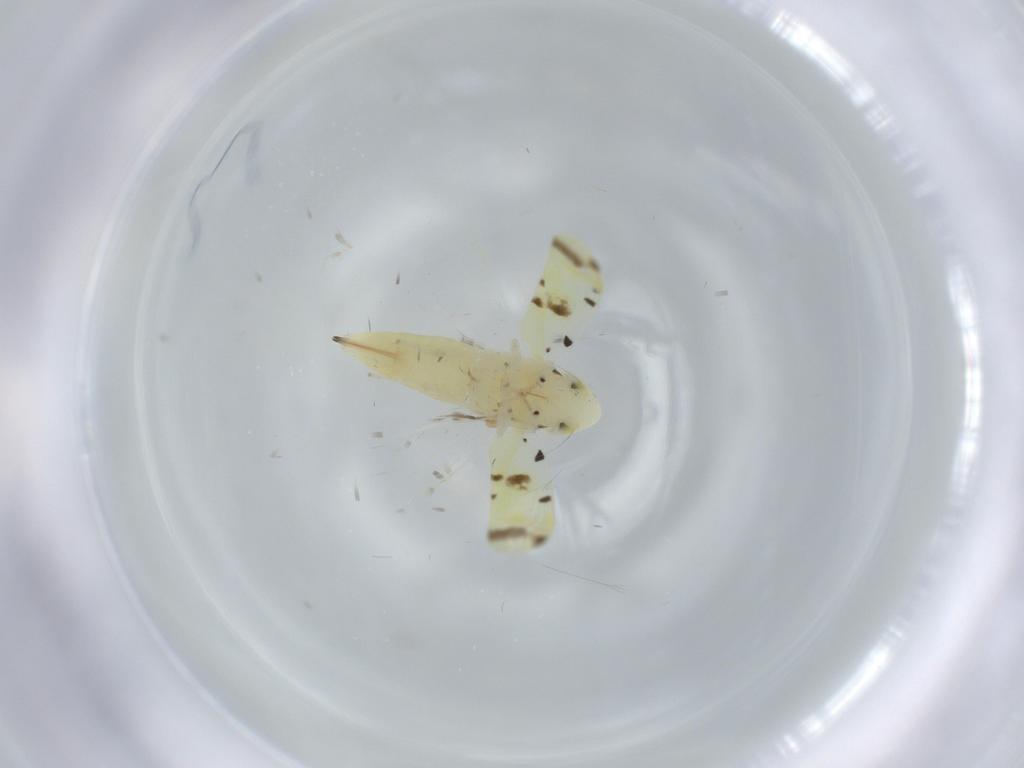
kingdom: Animalia
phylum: Arthropoda
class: Insecta
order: Hemiptera
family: Cicadellidae
